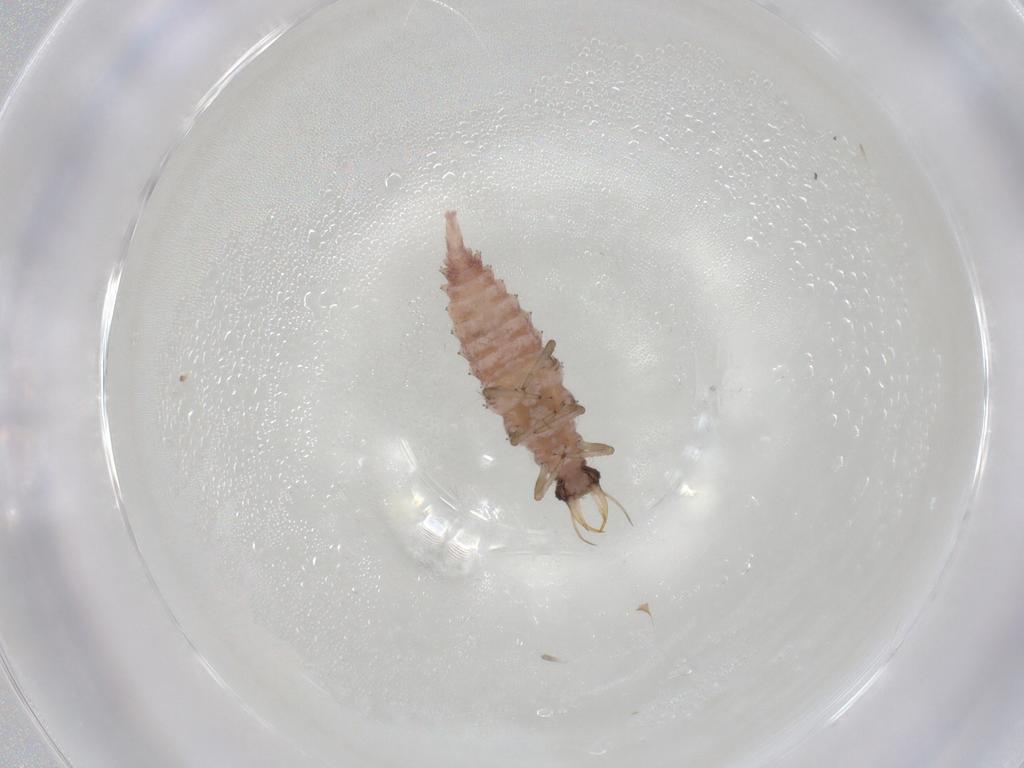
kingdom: Animalia
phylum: Arthropoda
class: Insecta
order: Neuroptera
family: Chrysopidae
